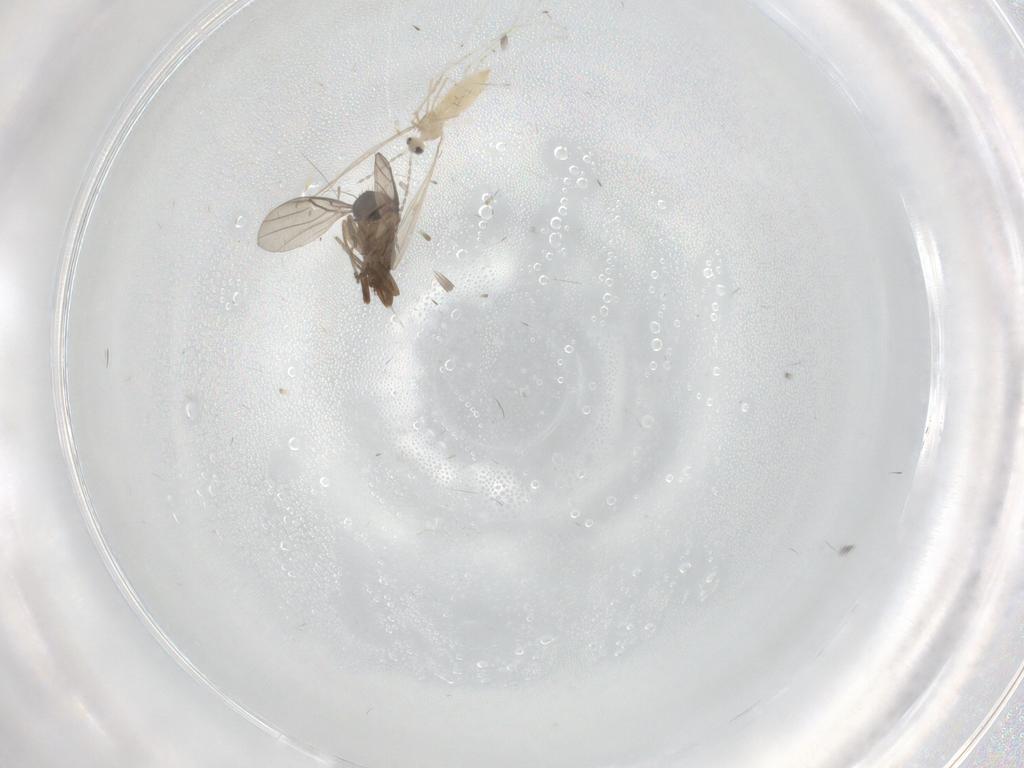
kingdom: Animalia
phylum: Arthropoda
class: Insecta
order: Diptera
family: Cecidomyiidae
